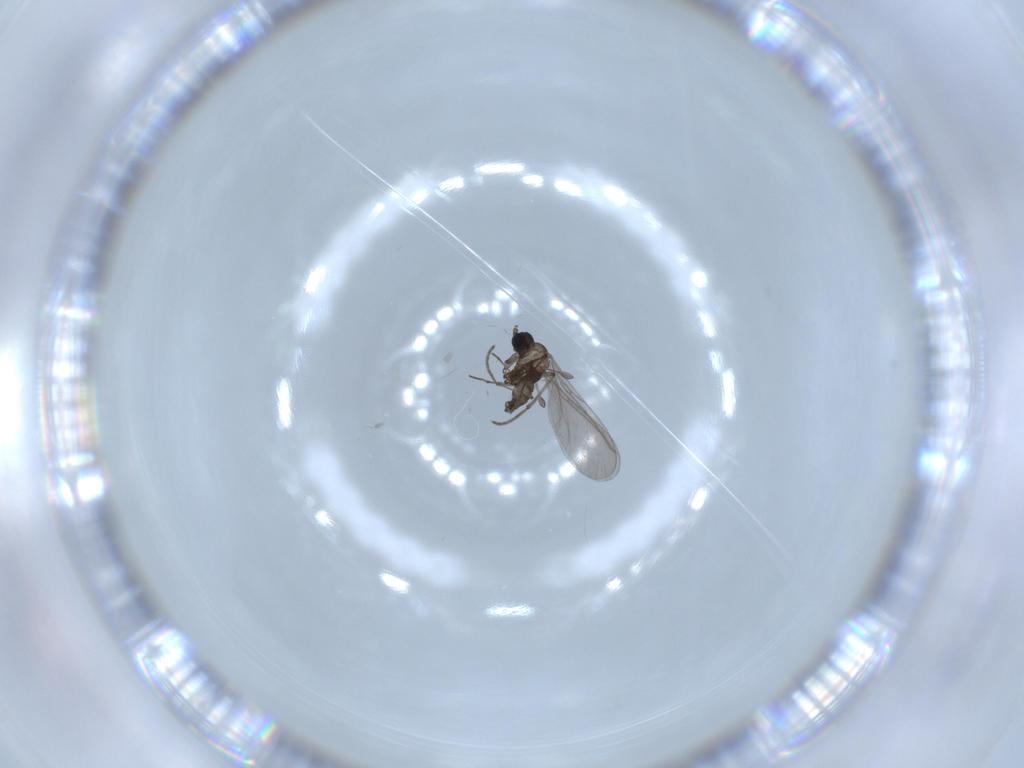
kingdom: Animalia
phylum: Arthropoda
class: Insecta
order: Diptera
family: Sciaridae
